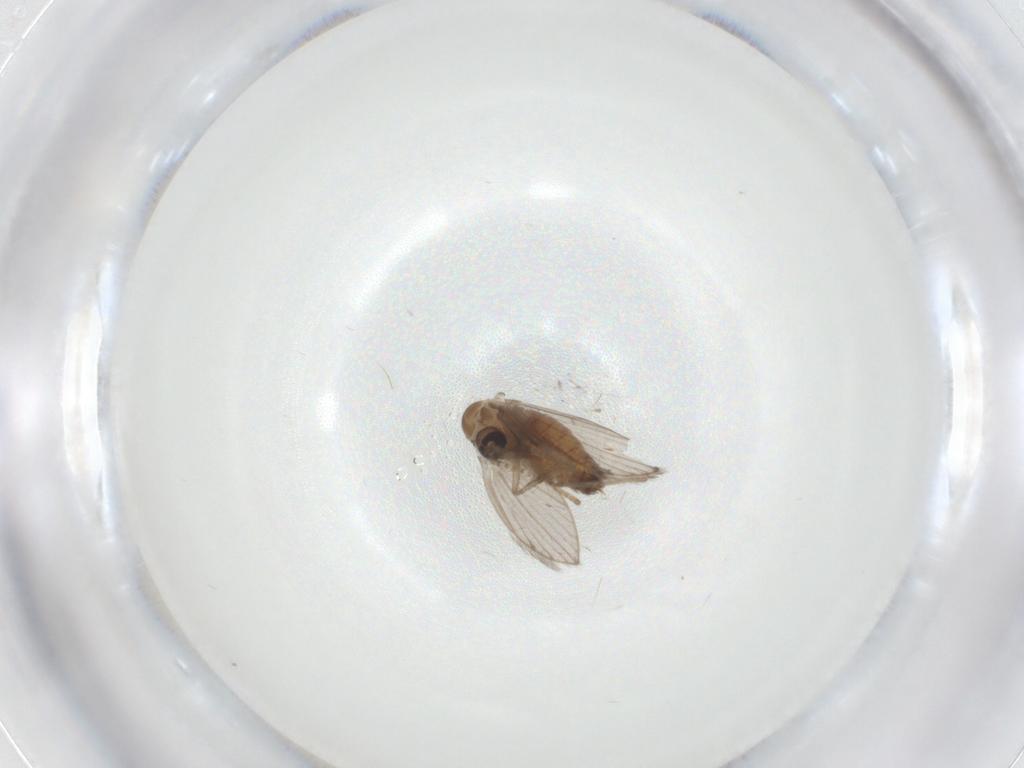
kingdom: Animalia
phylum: Arthropoda
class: Insecta
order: Diptera
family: Psychodidae
